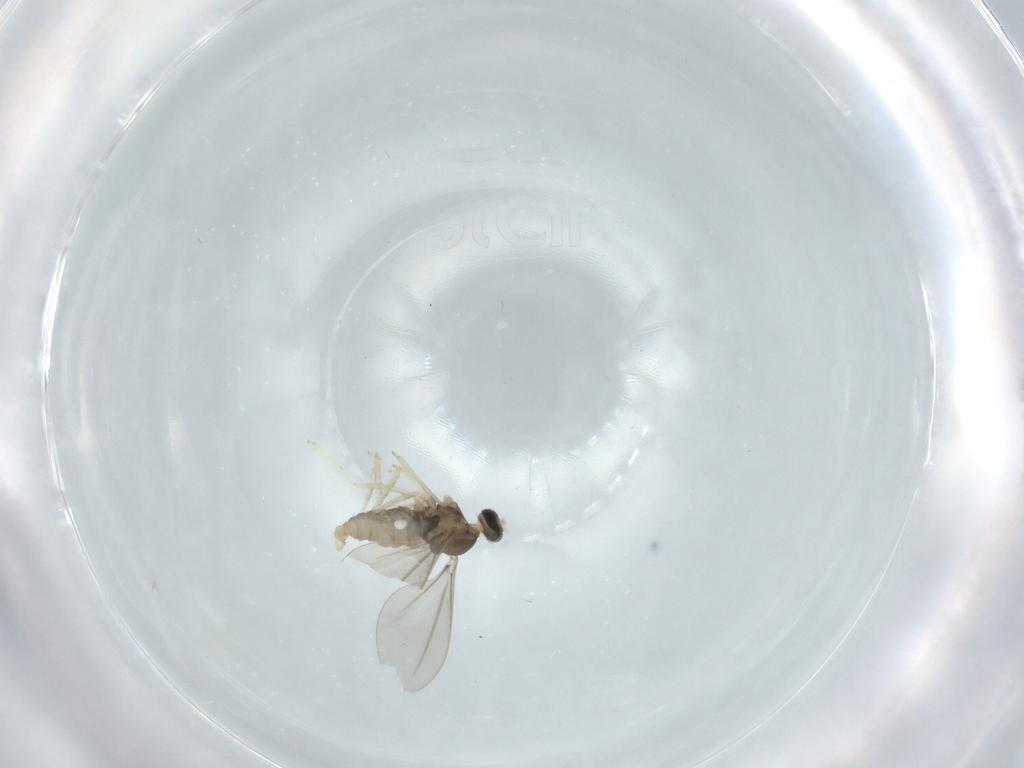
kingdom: Animalia
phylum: Arthropoda
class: Insecta
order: Diptera
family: Cecidomyiidae
